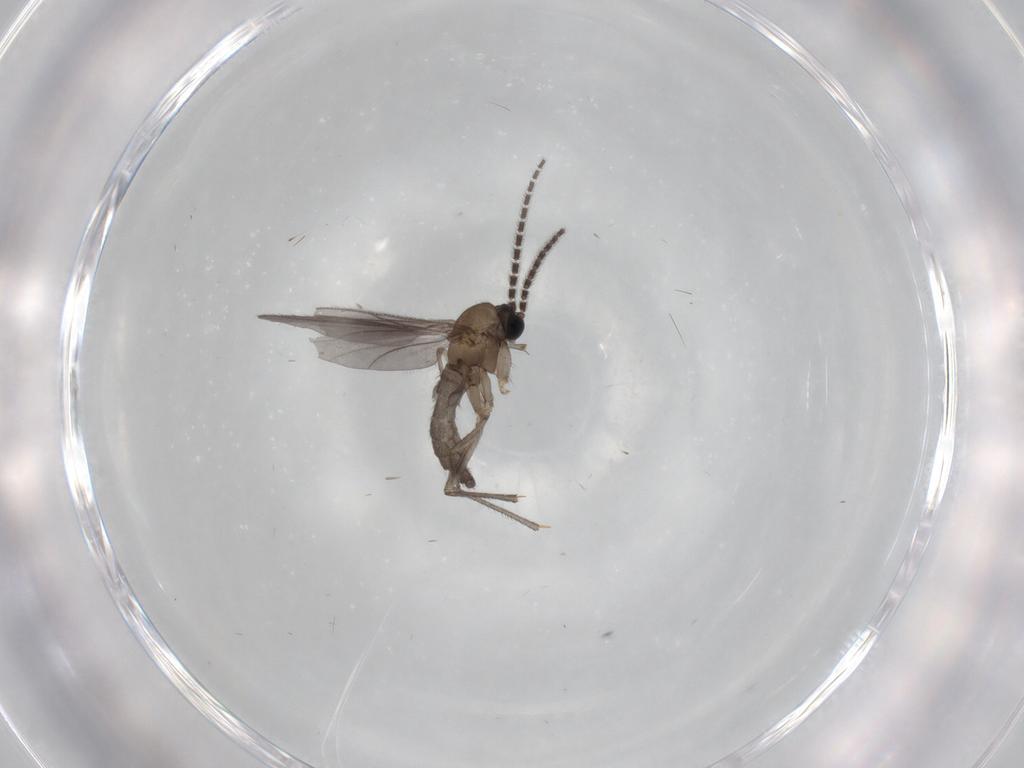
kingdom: Animalia
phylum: Arthropoda
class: Insecta
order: Diptera
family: Sciaridae
